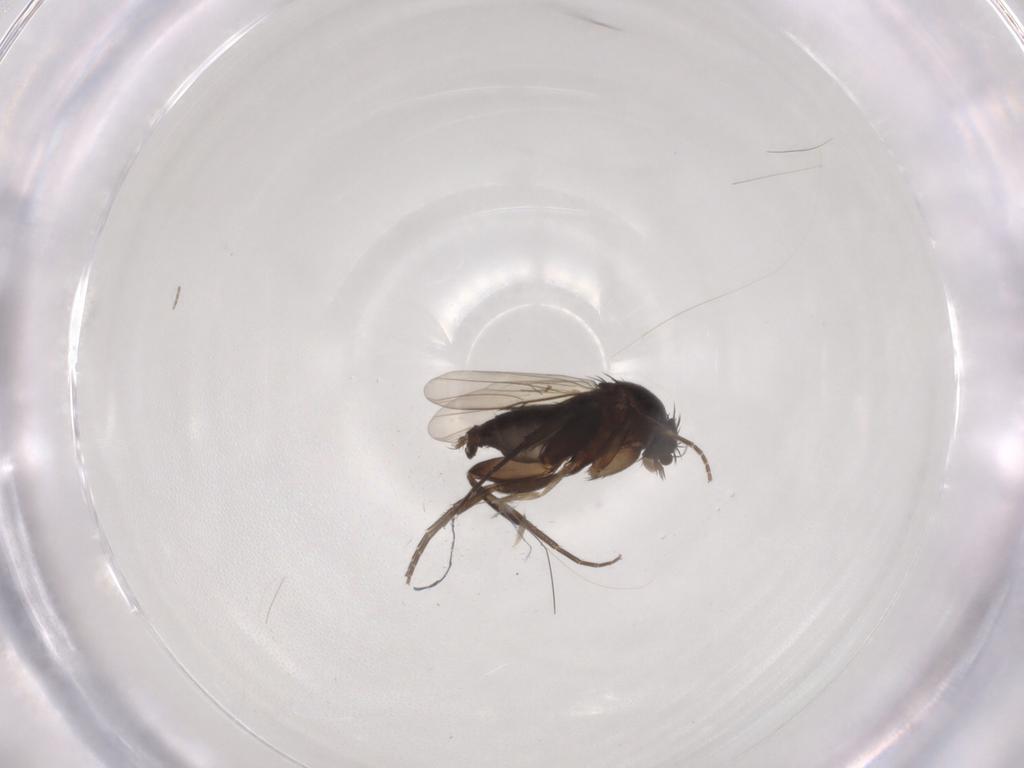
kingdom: Animalia
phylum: Arthropoda
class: Insecta
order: Diptera
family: Phoridae
